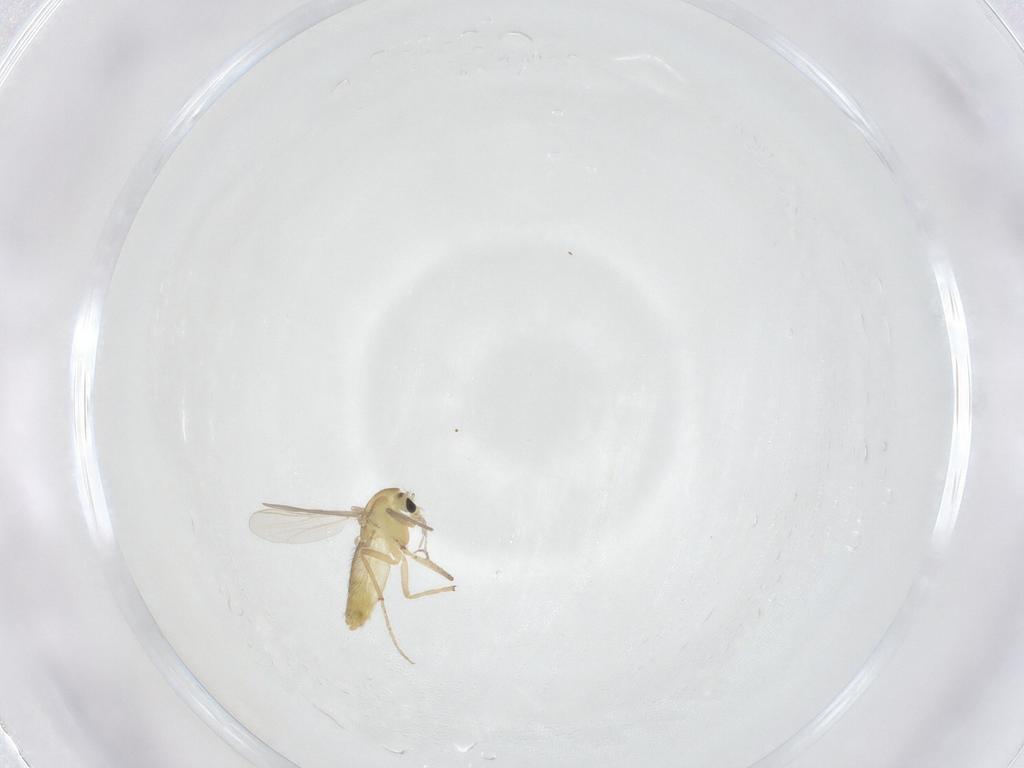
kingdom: Animalia
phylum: Arthropoda
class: Insecta
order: Diptera
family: Chironomidae
